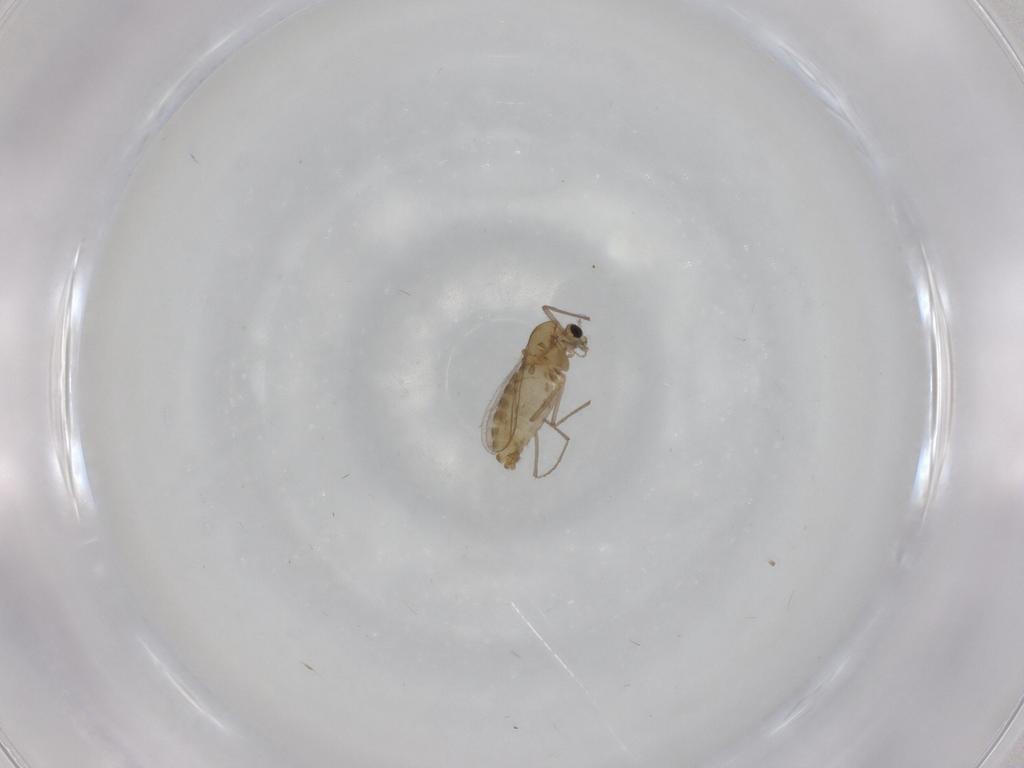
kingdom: Animalia
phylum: Arthropoda
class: Insecta
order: Diptera
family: Chironomidae
